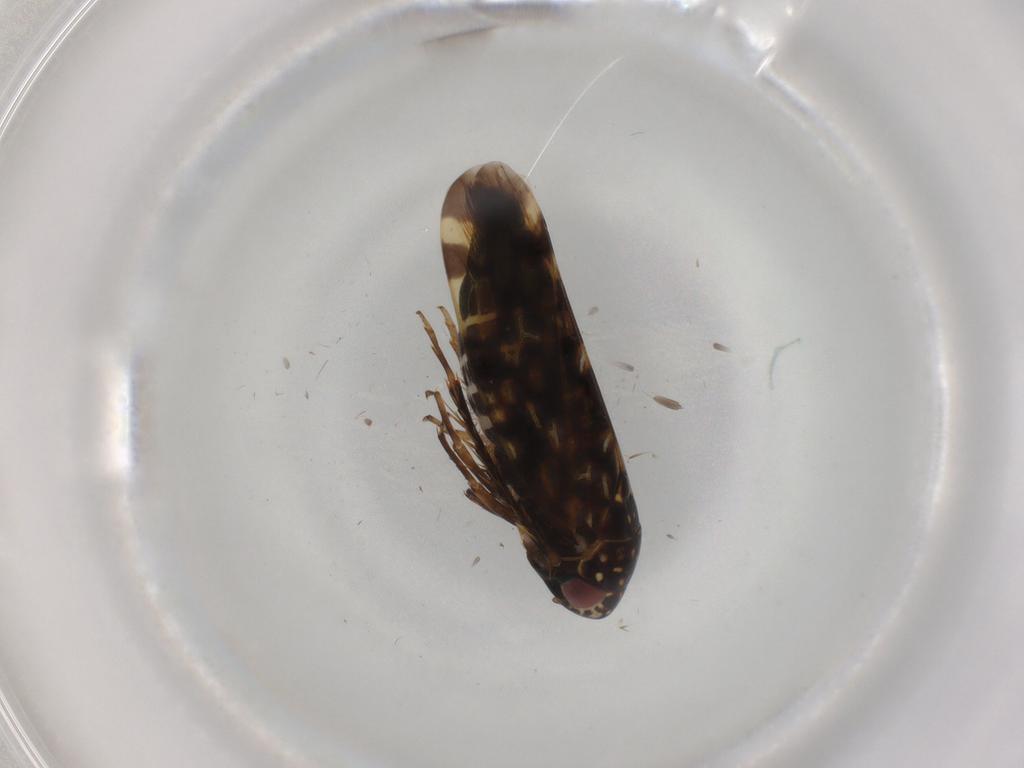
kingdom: Animalia
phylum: Arthropoda
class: Insecta
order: Hemiptera
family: Cicadellidae
